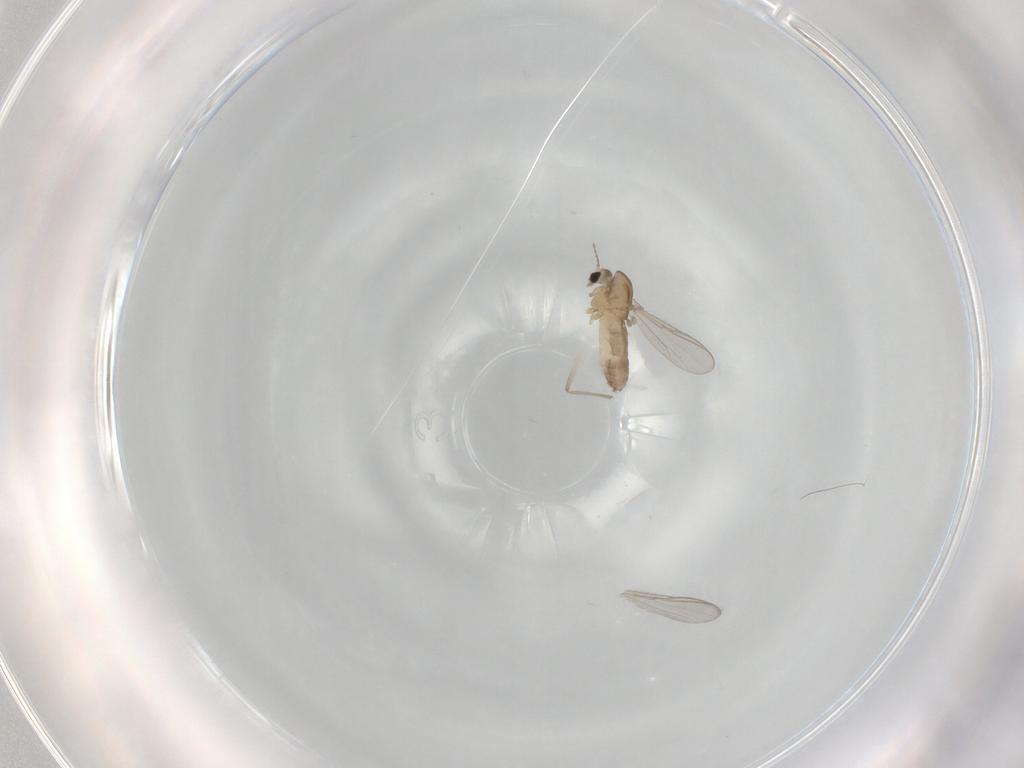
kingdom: Animalia
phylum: Arthropoda
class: Insecta
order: Diptera
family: Chironomidae
